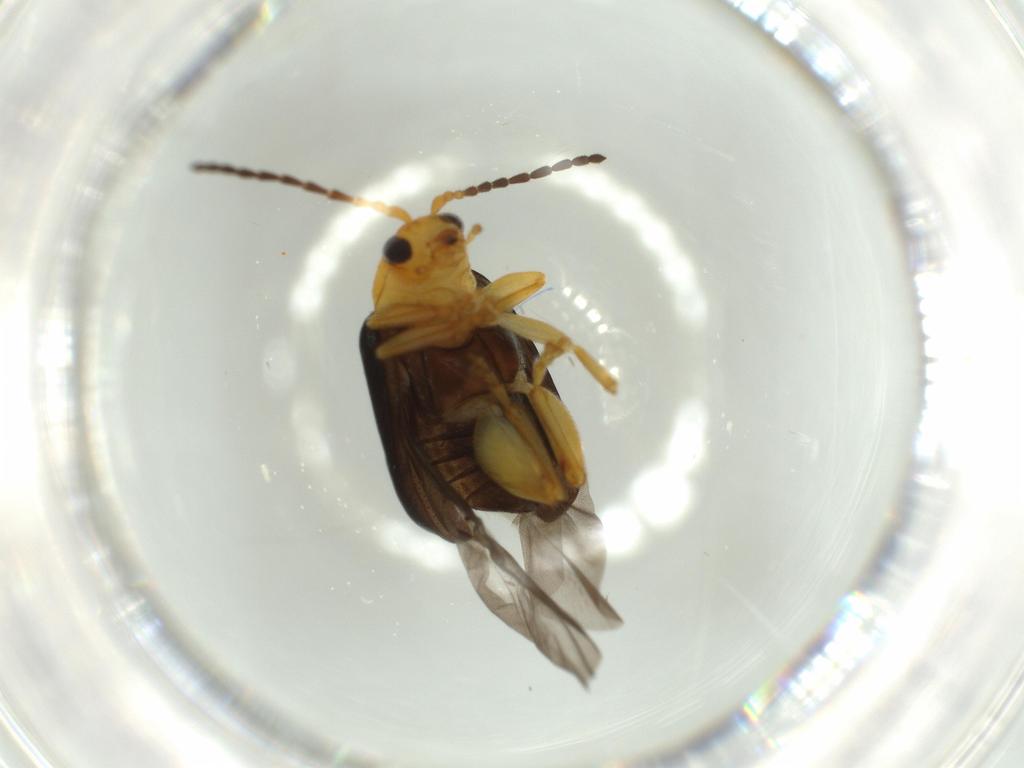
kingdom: Animalia
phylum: Arthropoda
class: Insecta
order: Coleoptera
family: Chrysomelidae
